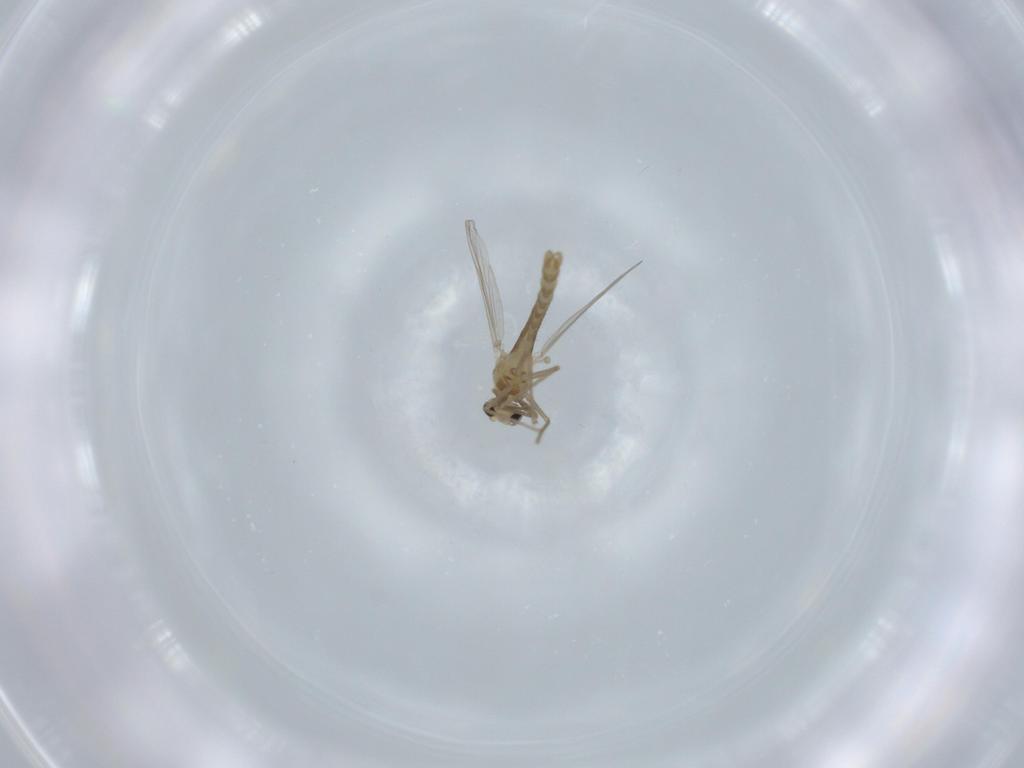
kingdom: Animalia
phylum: Arthropoda
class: Insecta
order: Diptera
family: Chironomidae
